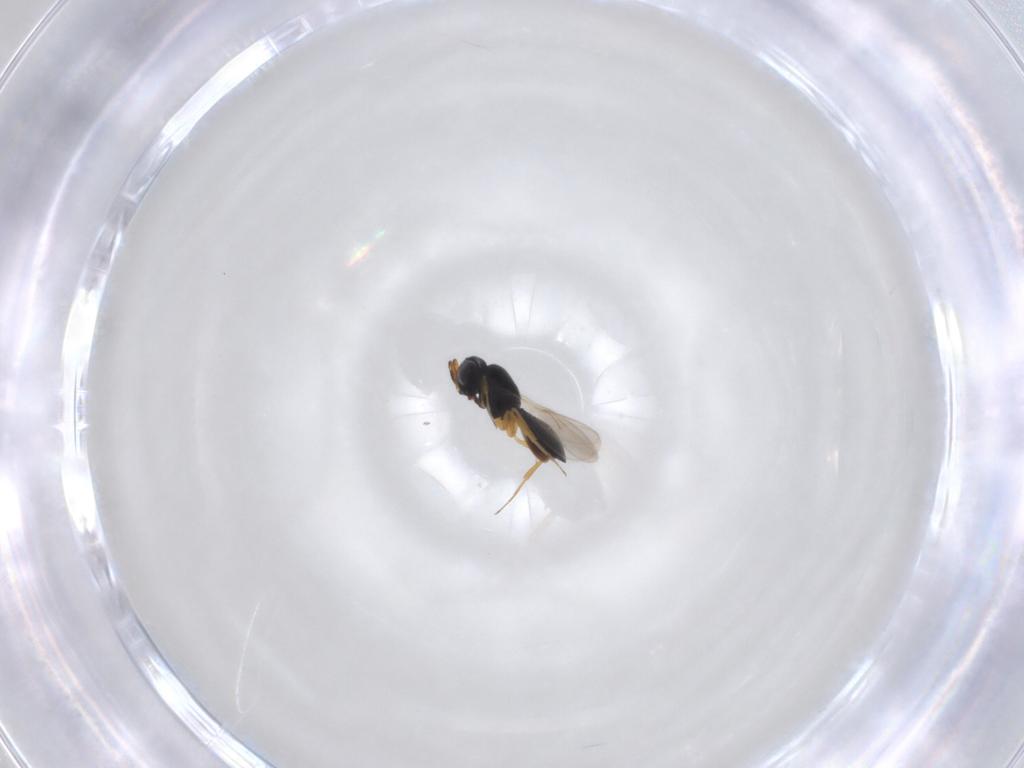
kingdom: Animalia
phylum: Arthropoda
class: Insecta
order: Hymenoptera
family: Scelionidae
